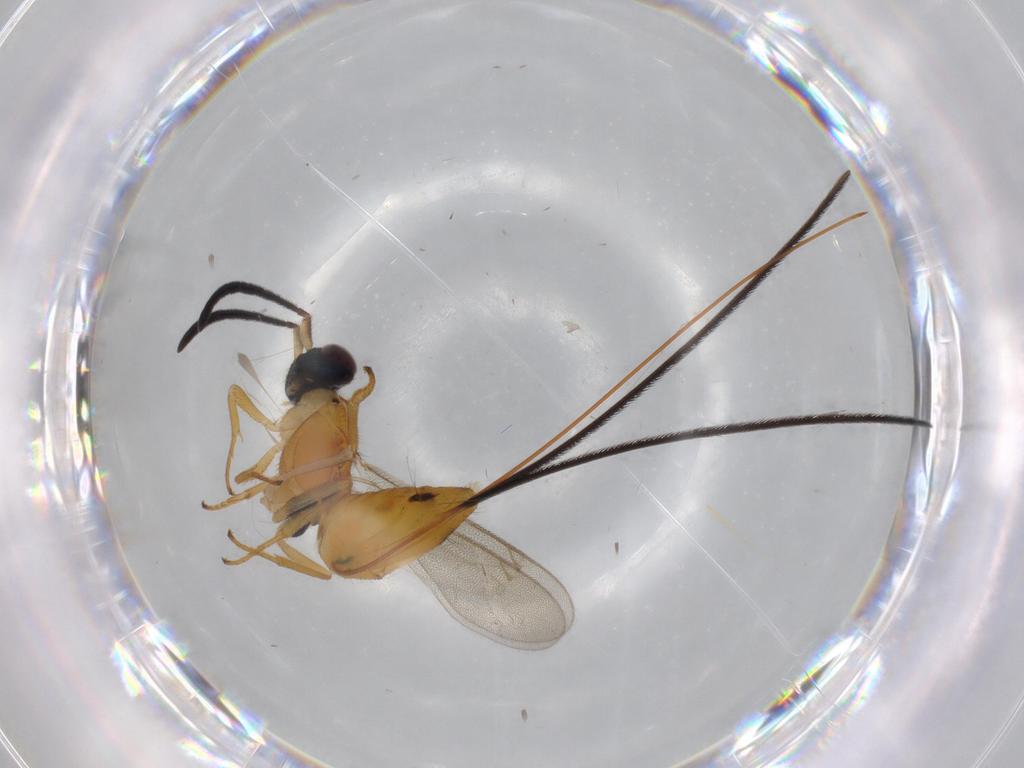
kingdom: Animalia
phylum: Arthropoda
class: Insecta
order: Hymenoptera
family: Eupelmidae
